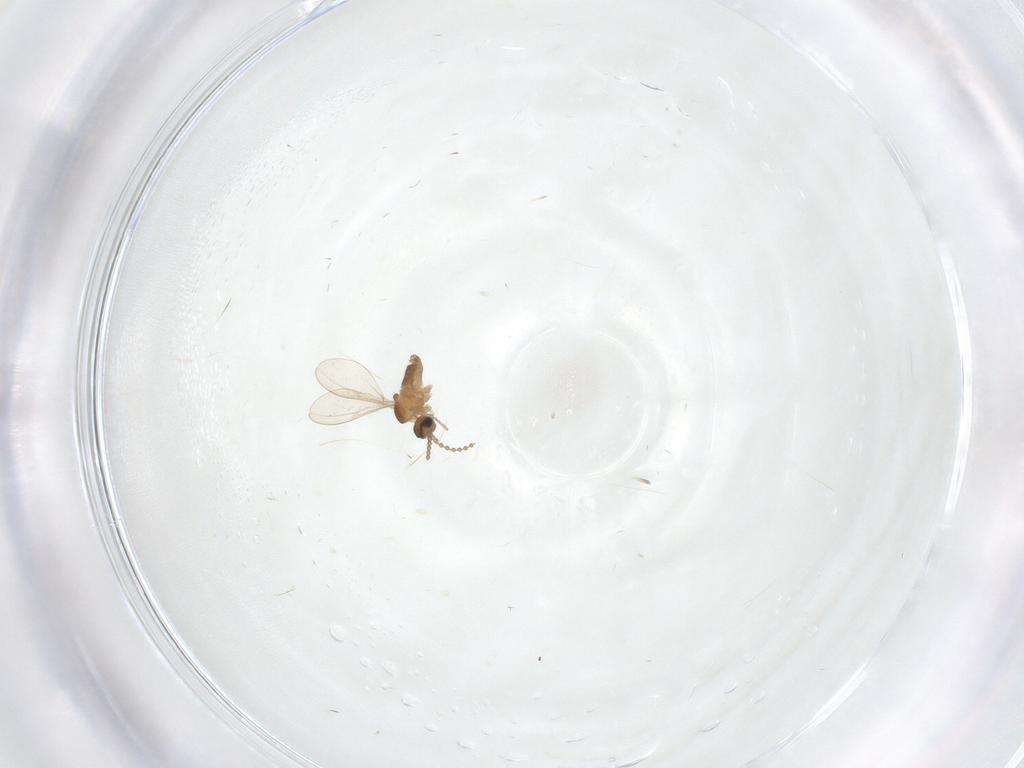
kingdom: Animalia
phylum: Arthropoda
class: Insecta
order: Diptera
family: Cecidomyiidae
